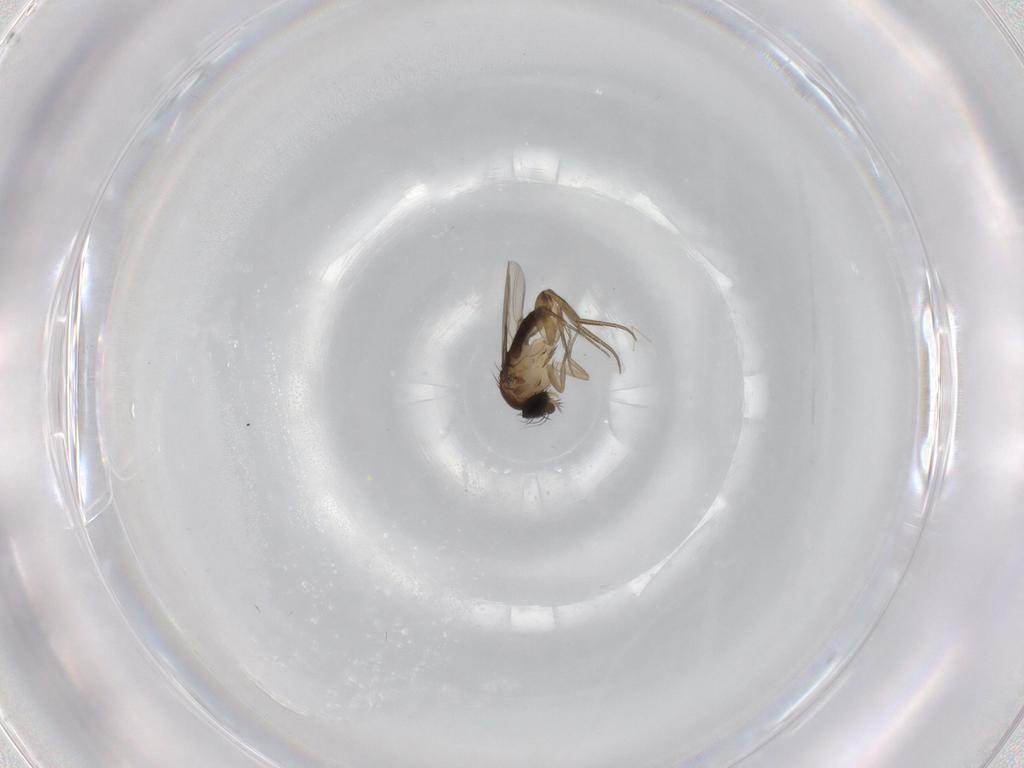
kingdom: Animalia
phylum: Arthropoda
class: Insecta
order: Diptera
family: Phoridae
